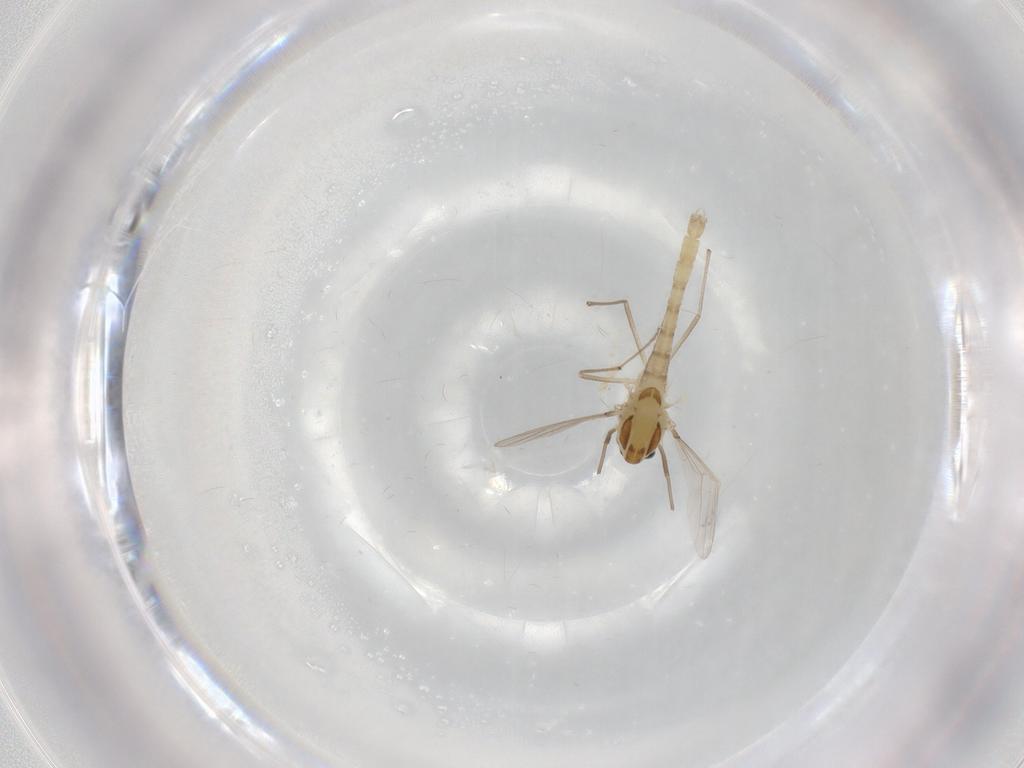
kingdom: Animalia
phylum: Arthropoda
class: Insecta
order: Diptera
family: Chironomidae
